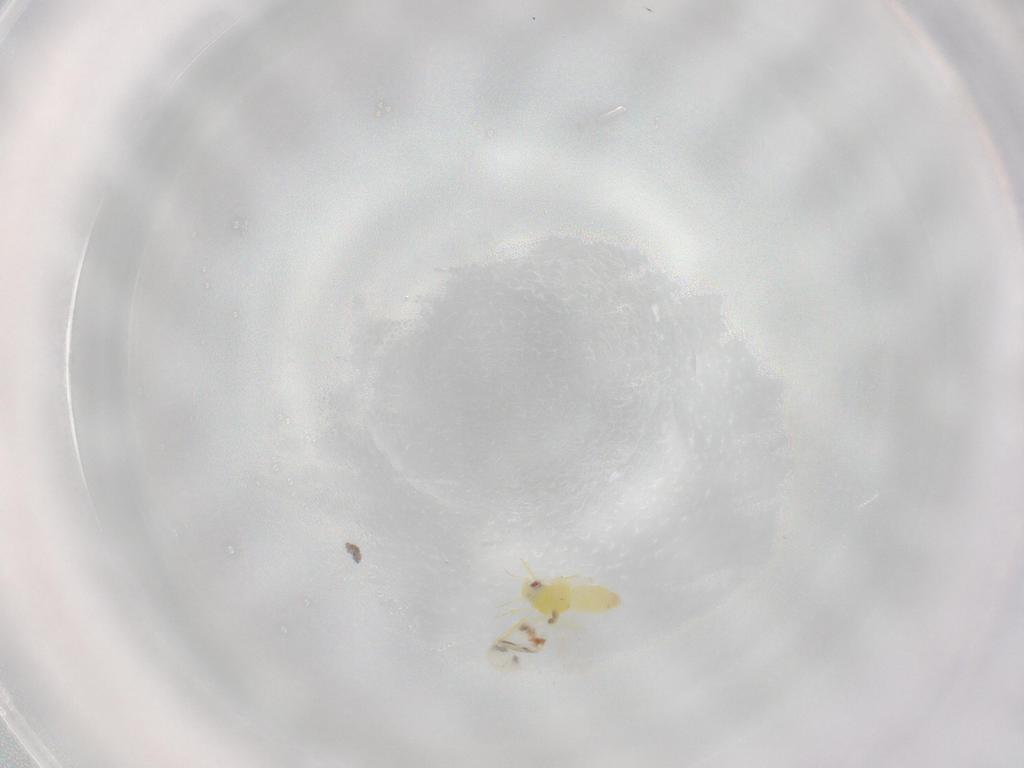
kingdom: Animalia
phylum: Arthropoda
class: Insecta
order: Hemiptera
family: Aleyrodidae
